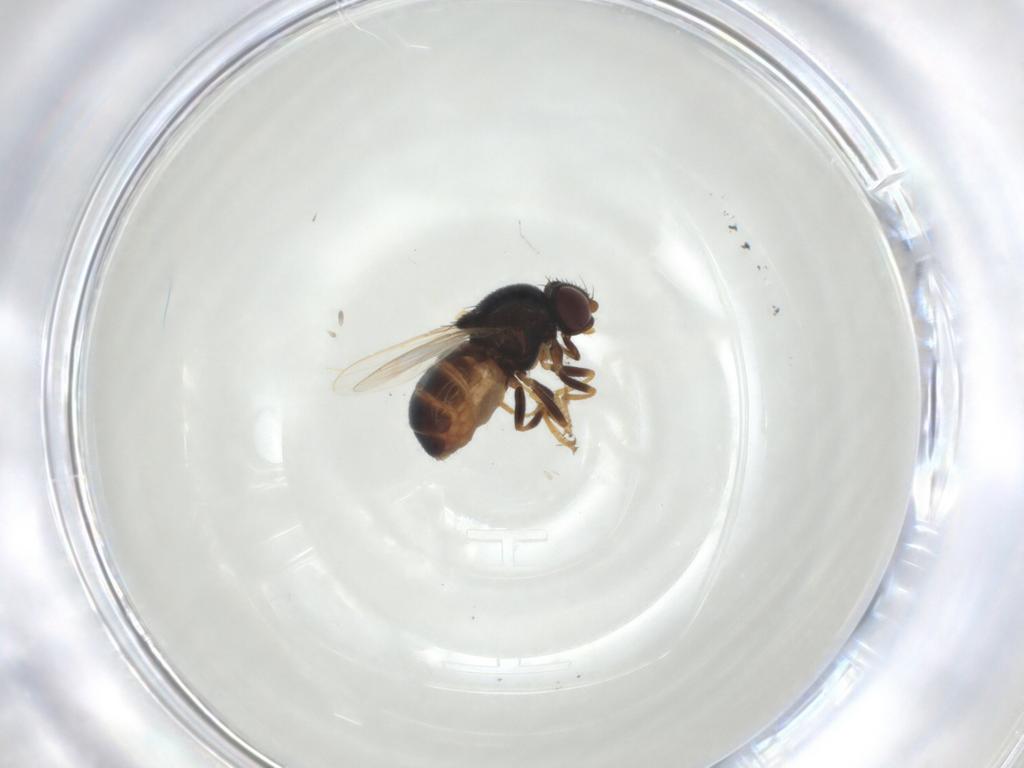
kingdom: Animalia
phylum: Arthropoda
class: Insecta
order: Diptera
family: Chloropidae
